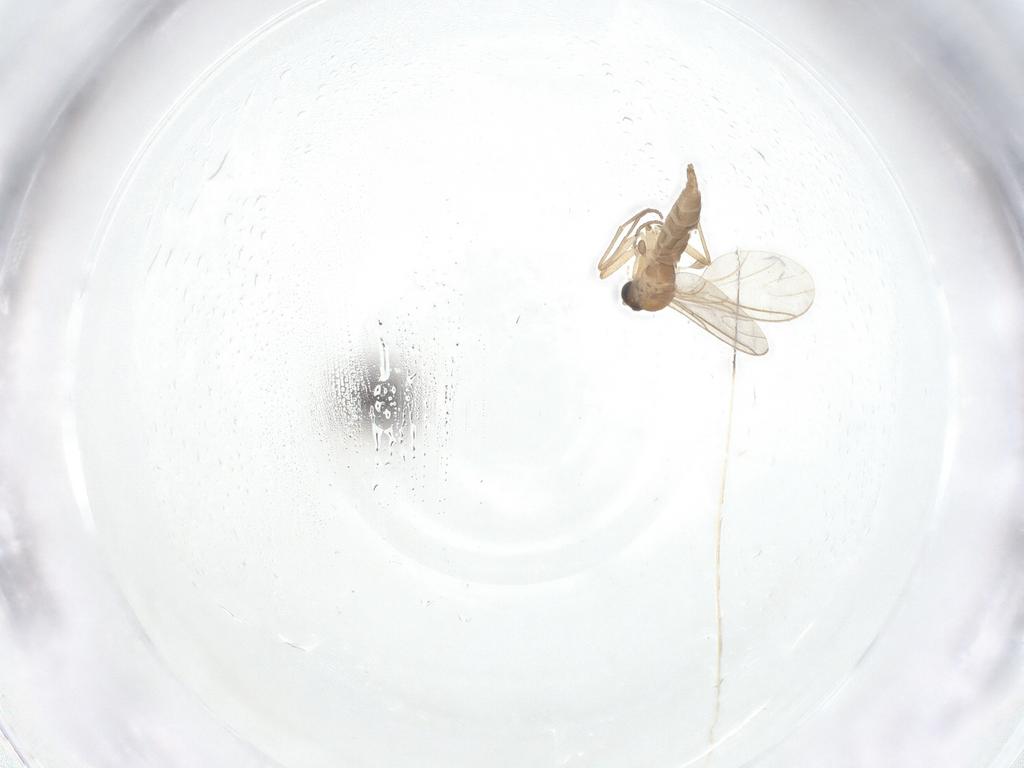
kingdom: Animalia
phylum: Arthropoda
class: Insecta
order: Diptera
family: Sciaridae
